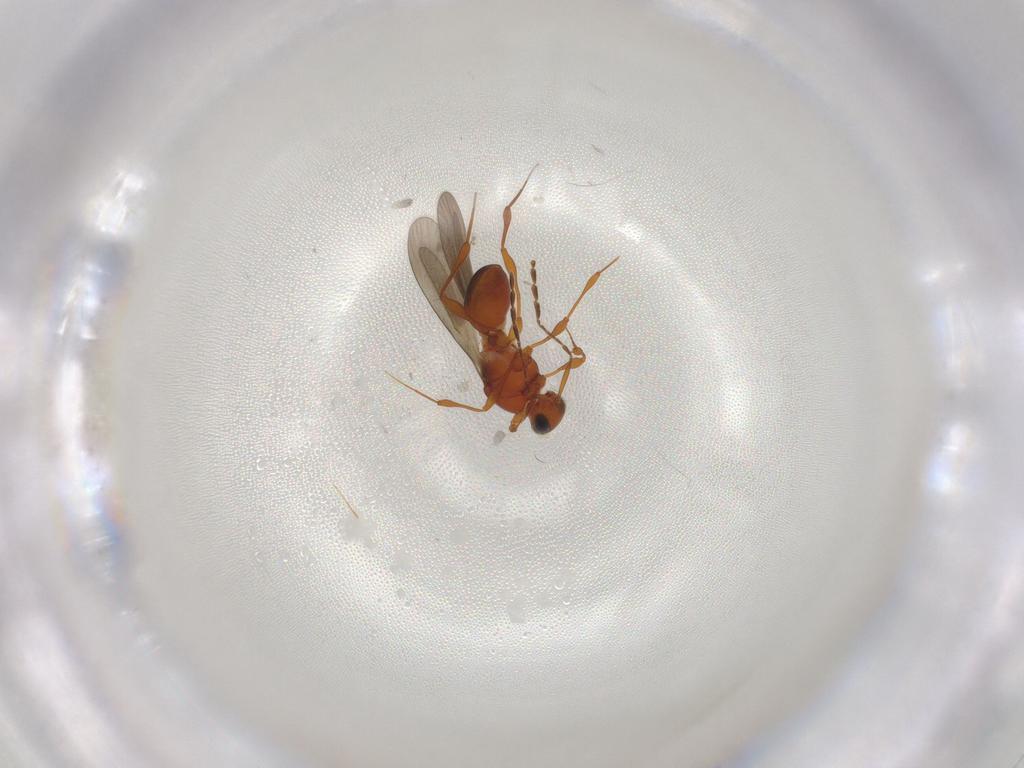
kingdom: Animalia
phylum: Arthropoda
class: Insecta
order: Hymenoptera
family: Platygastridae
